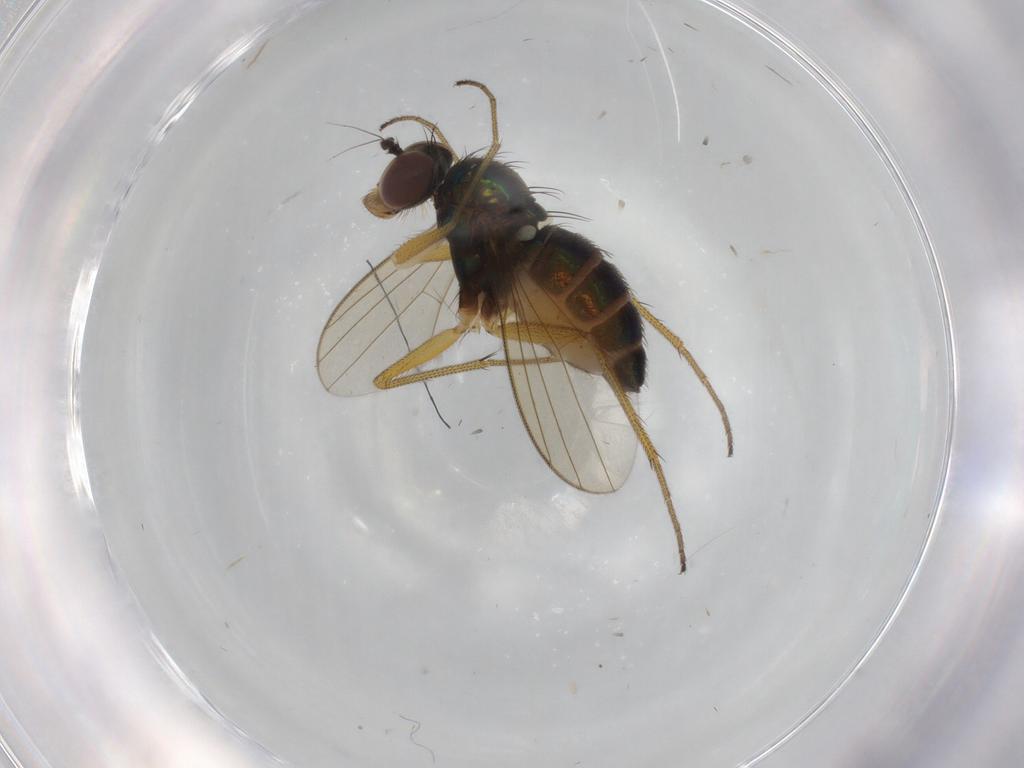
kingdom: Animalia
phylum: Arthropoda
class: Insecta
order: Diptera
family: Dolichopodidae
